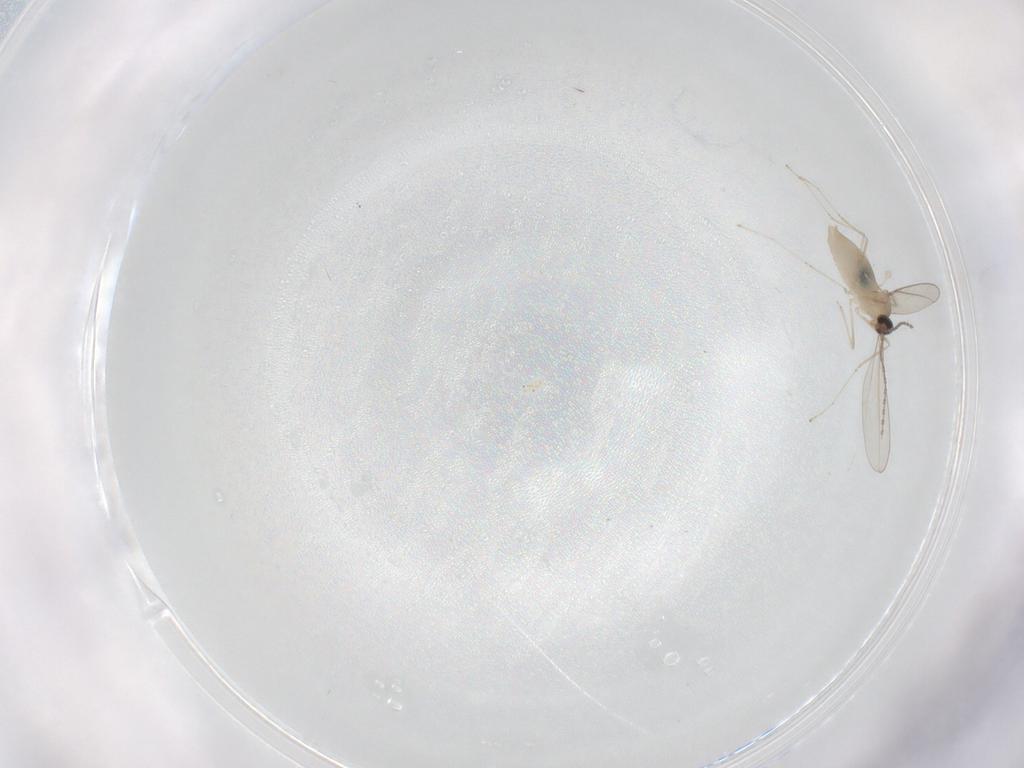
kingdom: Animalia
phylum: Arthropoda
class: Insecta
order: Diptera
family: Cecidomyiidae
